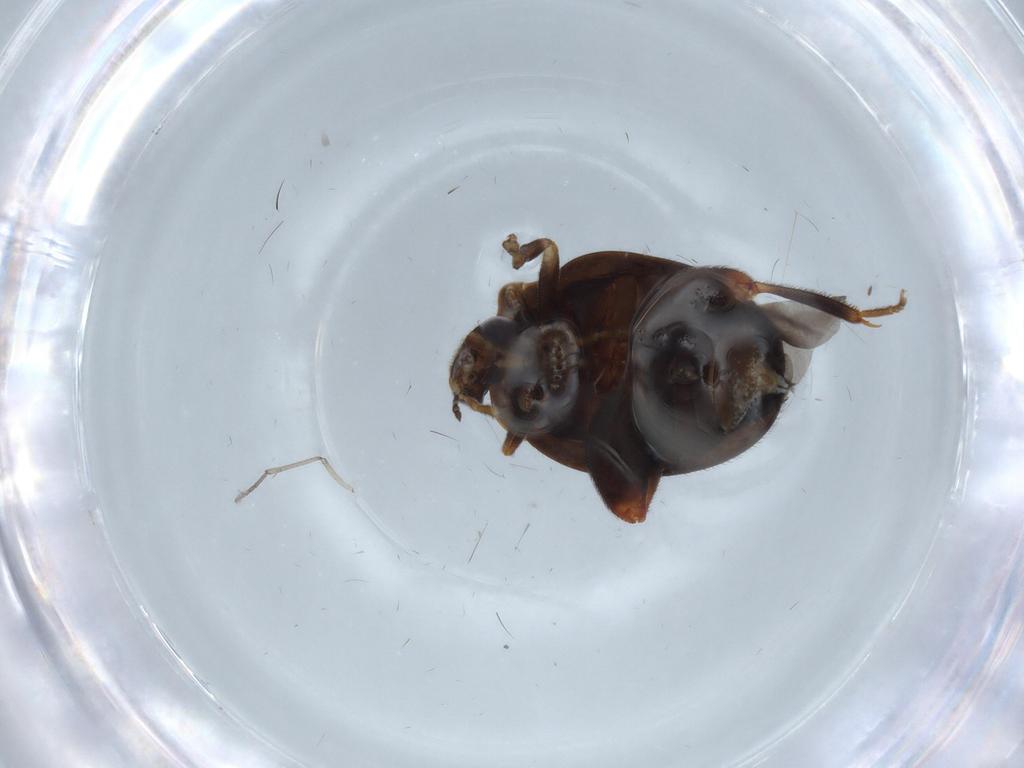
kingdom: Animalia
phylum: Arthropoda
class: Insecta
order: Coleoptera
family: Scirtidae
